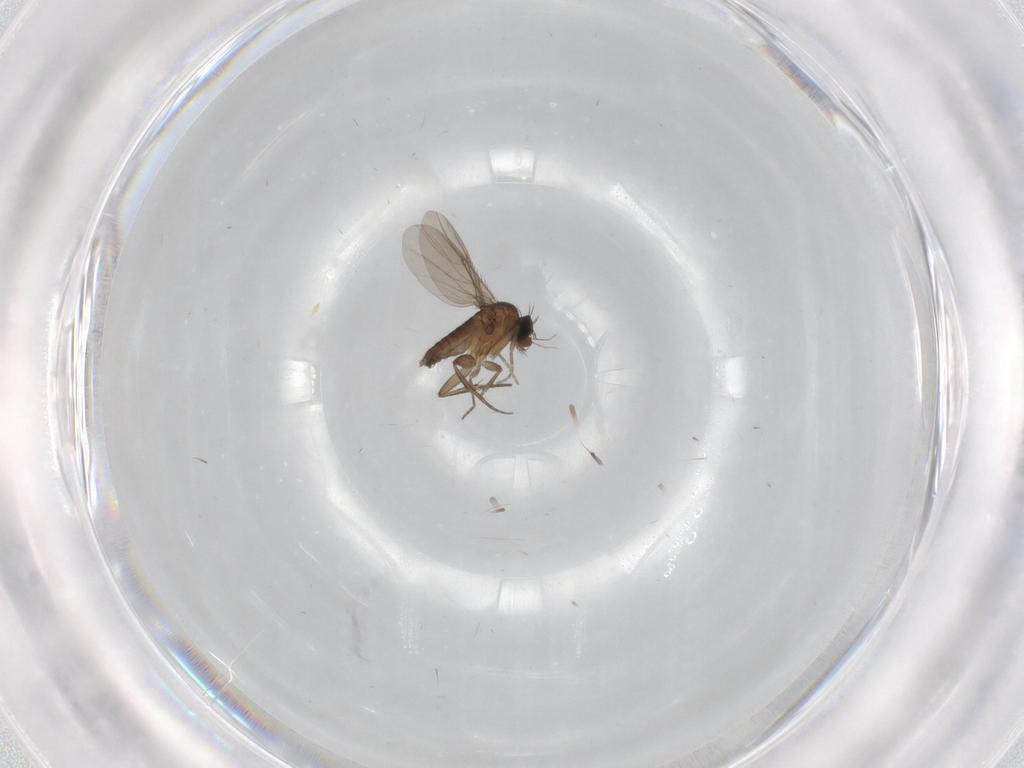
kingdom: Animalia
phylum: Arthropoda
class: Insecta
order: Diptera
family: Phoridae
